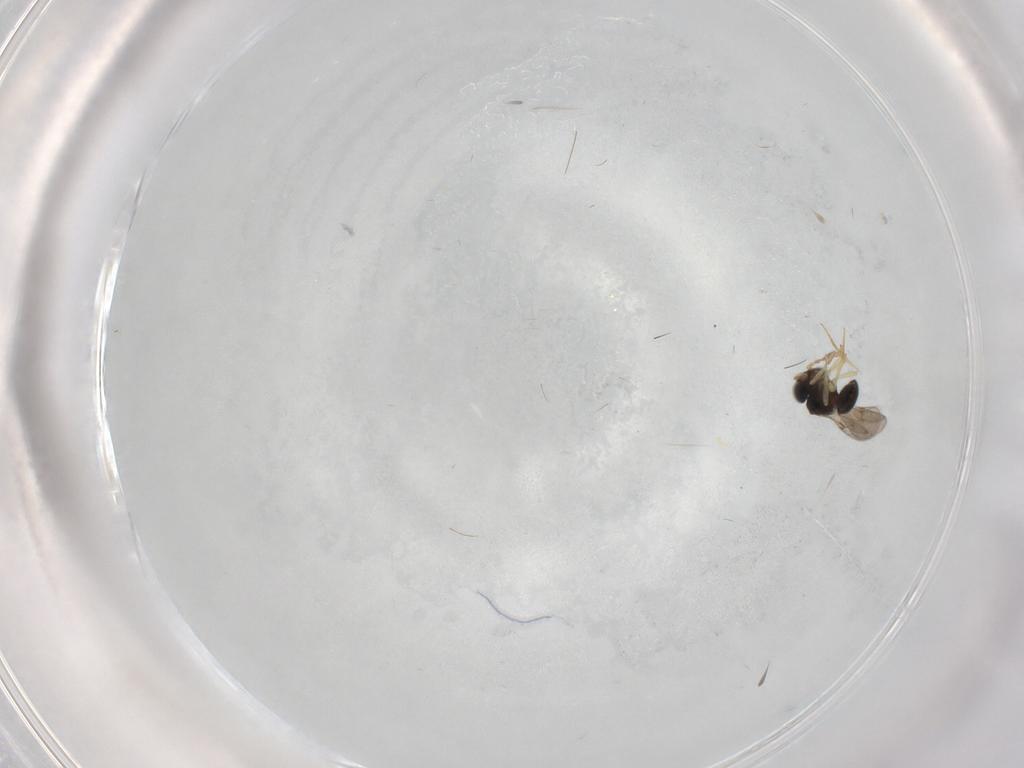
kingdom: Animalia
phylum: Arthropoda
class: Insecta
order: Hymenoptera
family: Scelionidae
